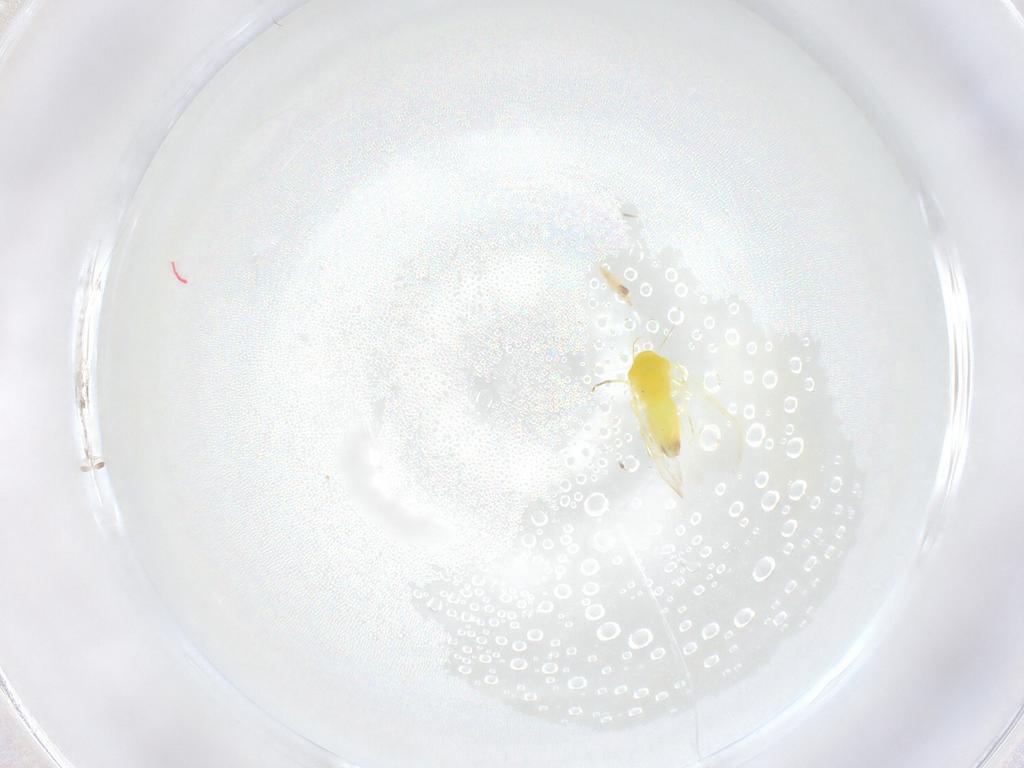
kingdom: Animalia
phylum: Arthropoda
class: Insecta
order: Hemiptera
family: Aleyrodidae
